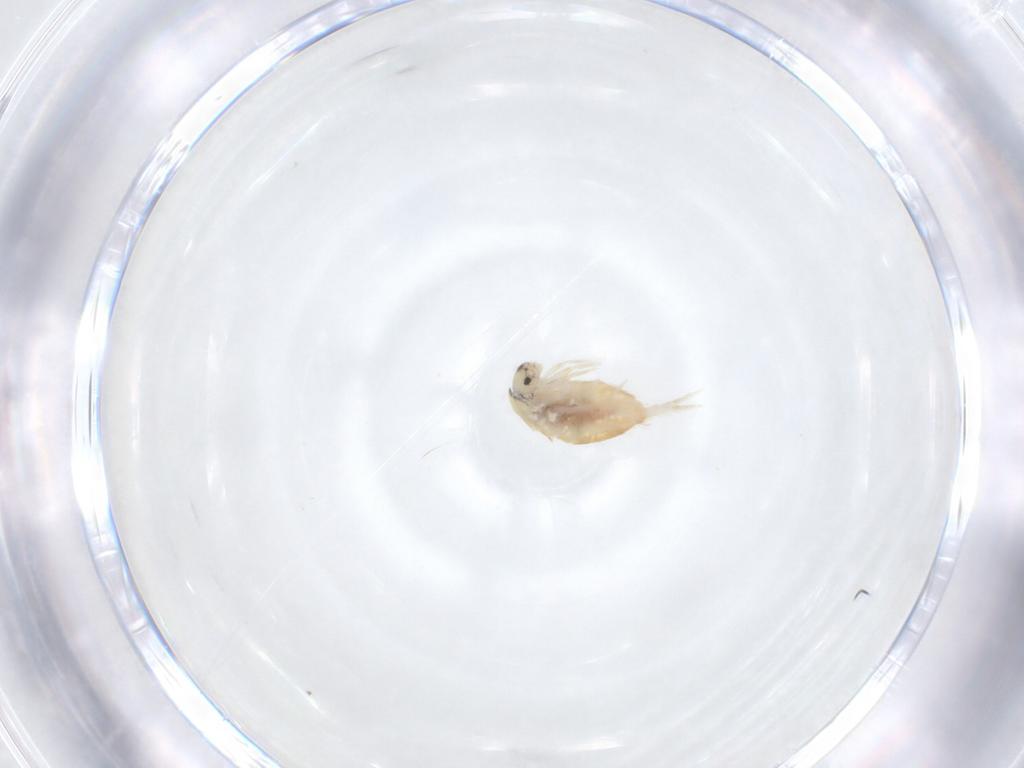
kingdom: Animalia
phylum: Arthropoda
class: Collembola
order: Entomobryomorpha
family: Entomobryidae
